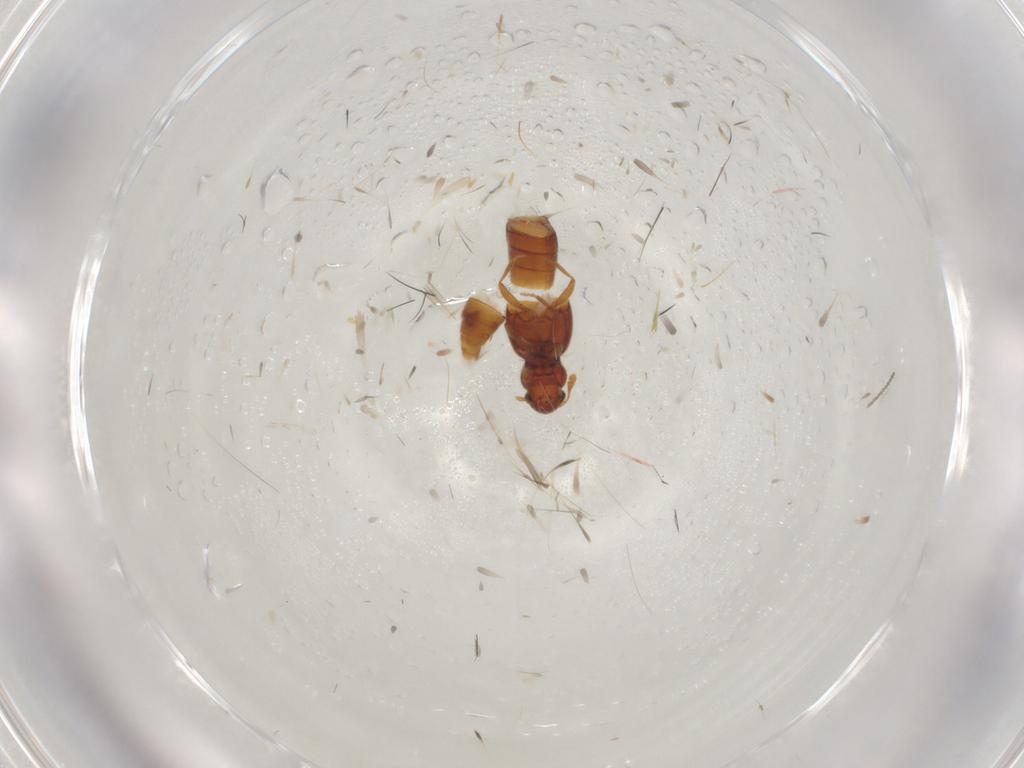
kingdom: Animalia
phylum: Arthropoda
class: Insecta
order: Coleoptera
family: Staphylinidae
